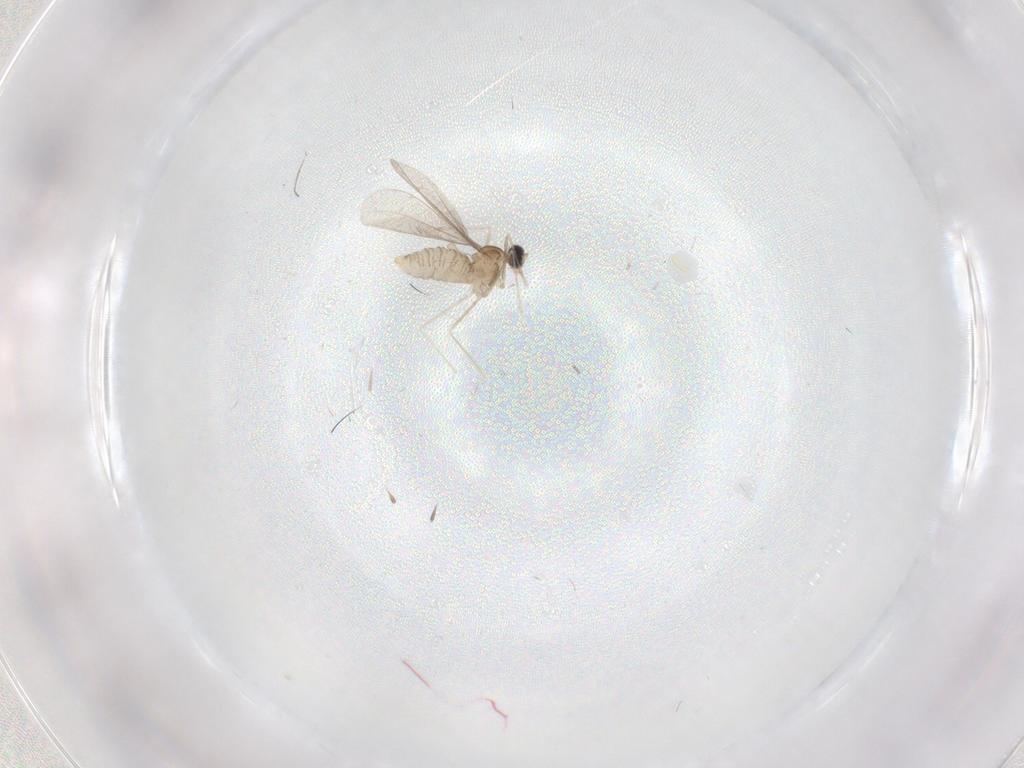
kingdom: Animalia
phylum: Arthropoda
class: Insecta
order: Diptera
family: Cecidomyiidae
